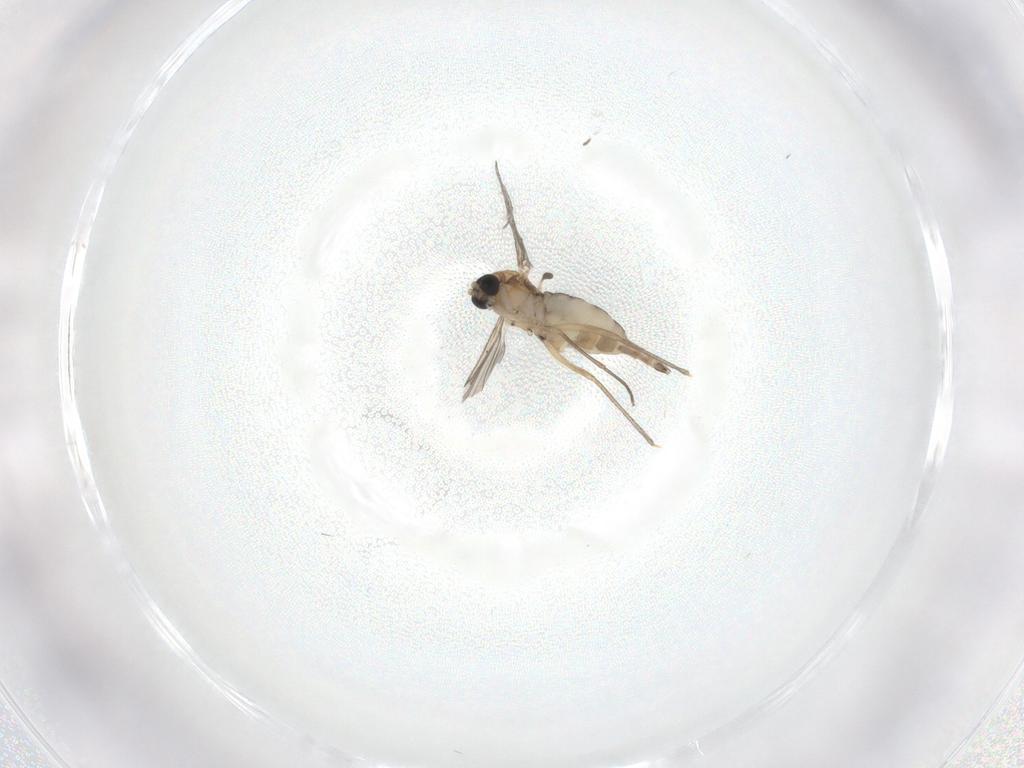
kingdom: Animalia
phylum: Arthropoda
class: Insecta
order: Diptera
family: Sciaridae
